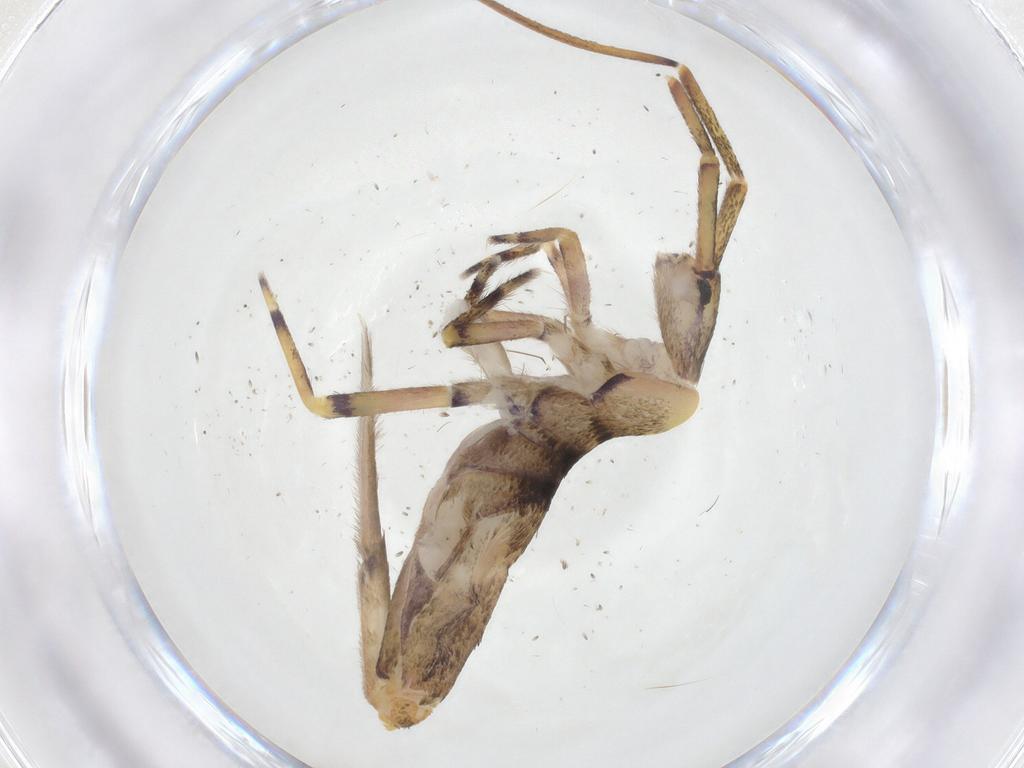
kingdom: Animalia
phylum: Arthropoda
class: Collembola
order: Entomobryomorpha
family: Entomobryidae
